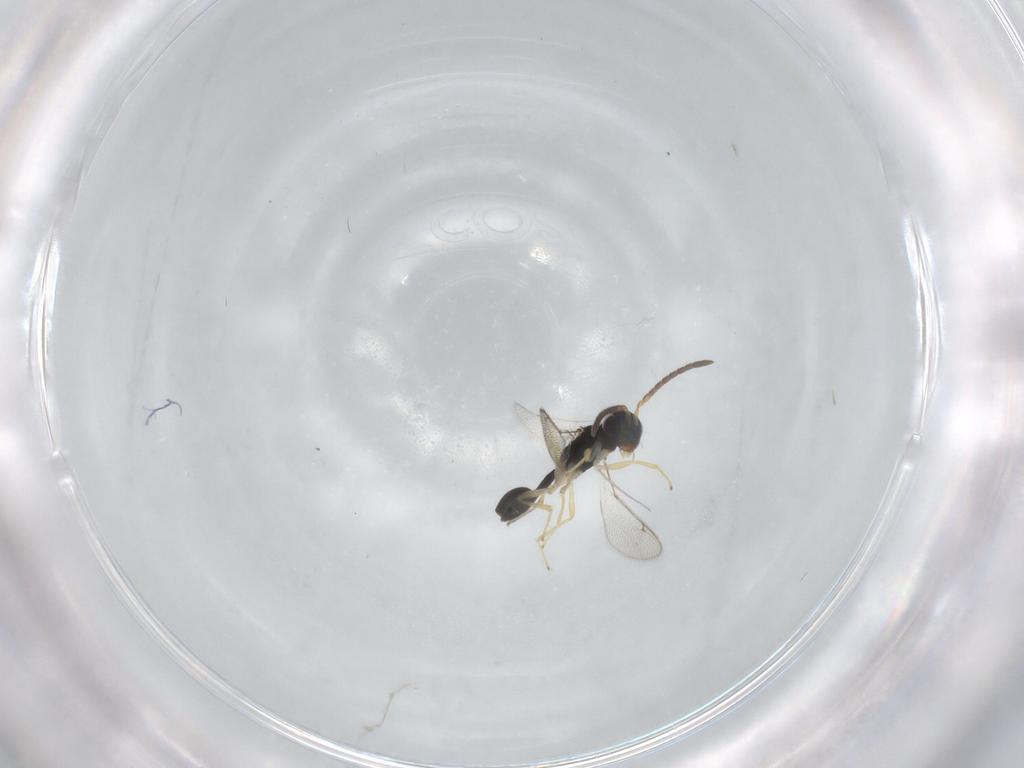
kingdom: Animalia
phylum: Arthropoda
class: Insecta
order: Hymenoptera
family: Diparidae
